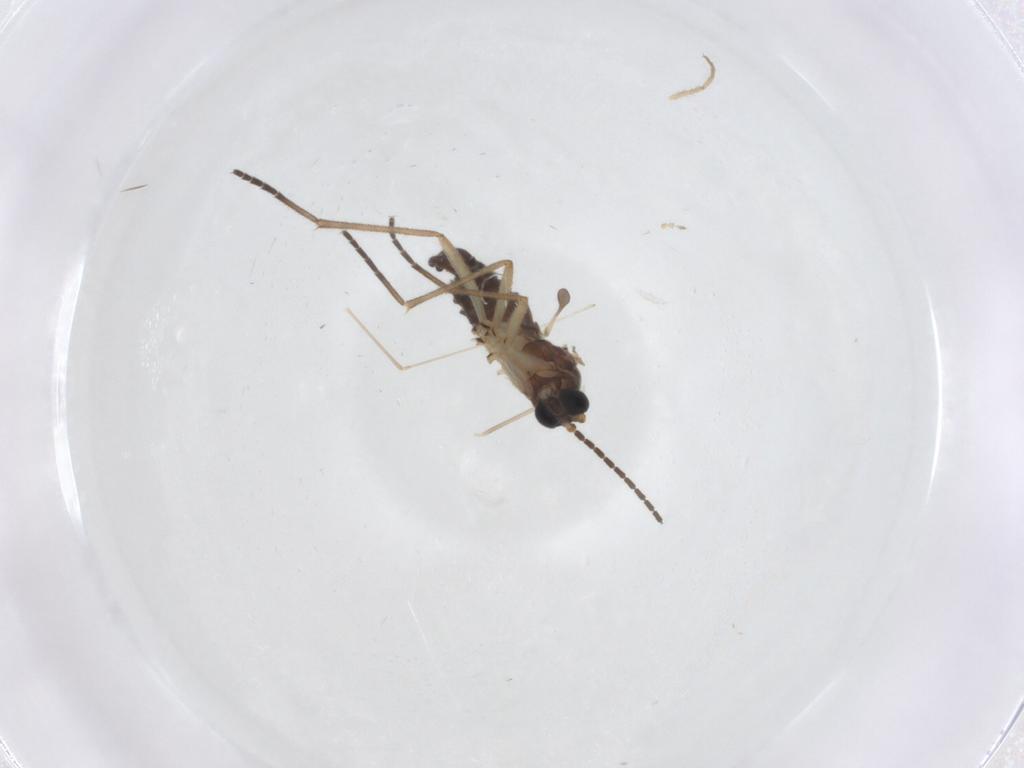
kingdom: Animalia
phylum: Arthropoda
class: Insecta
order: Diptera
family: Sciaridae
